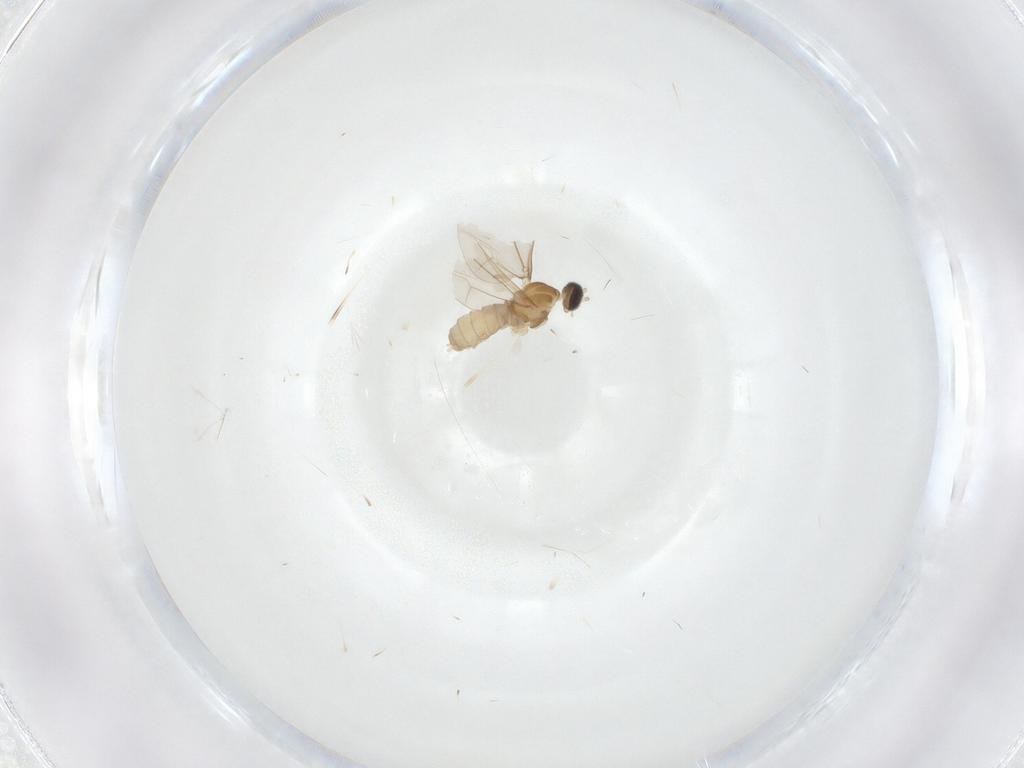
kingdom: Animalia
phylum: Arthropoda
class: Insecta
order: Diptera
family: Cecidomyiidae
